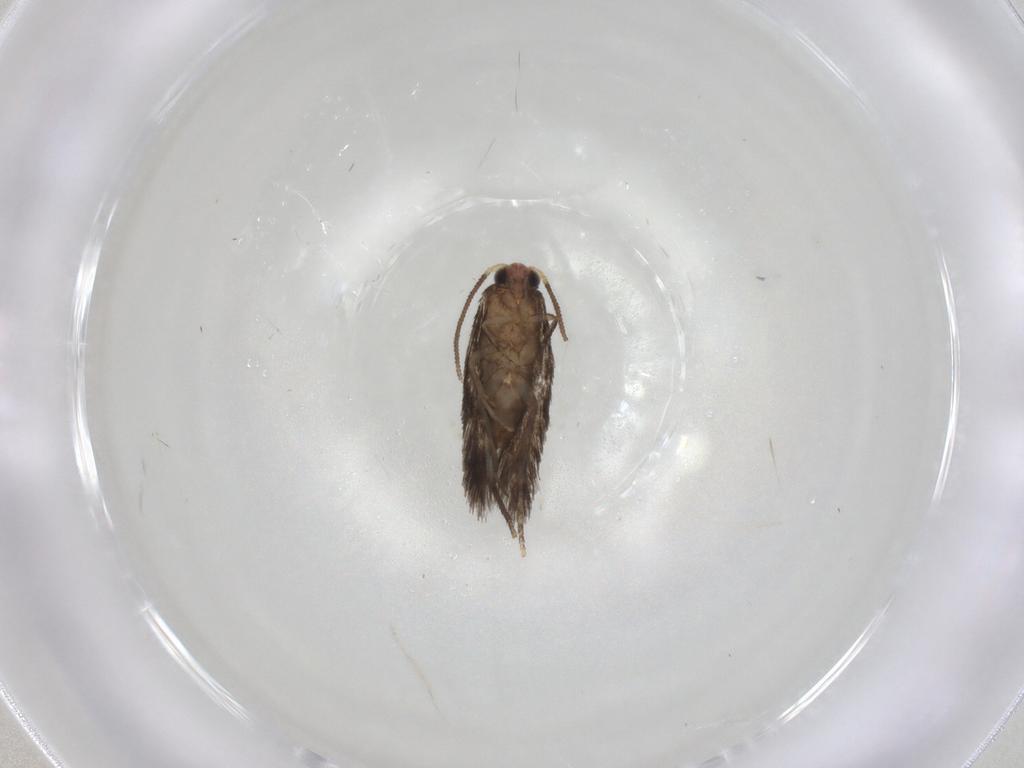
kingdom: Animalia
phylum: Arthropoda
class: Insecta
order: Lepidoptera
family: Nepticulidae
